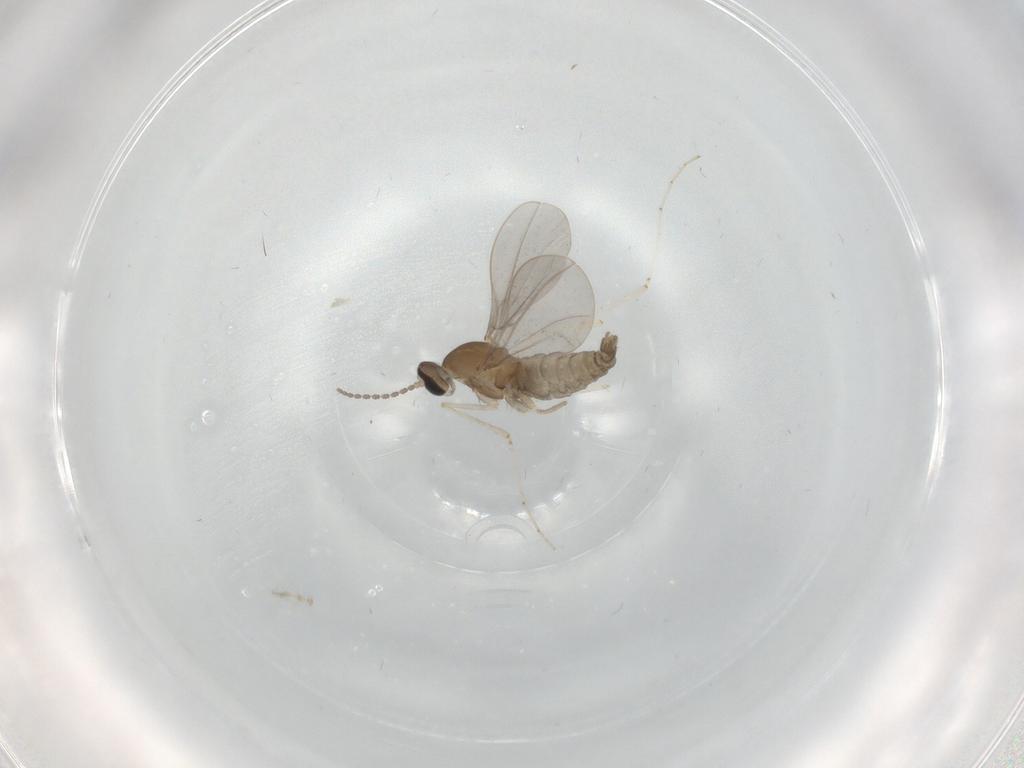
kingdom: Animalia
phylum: Arthropoda
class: Insecta
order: Diptera
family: Cecidomyiidae
